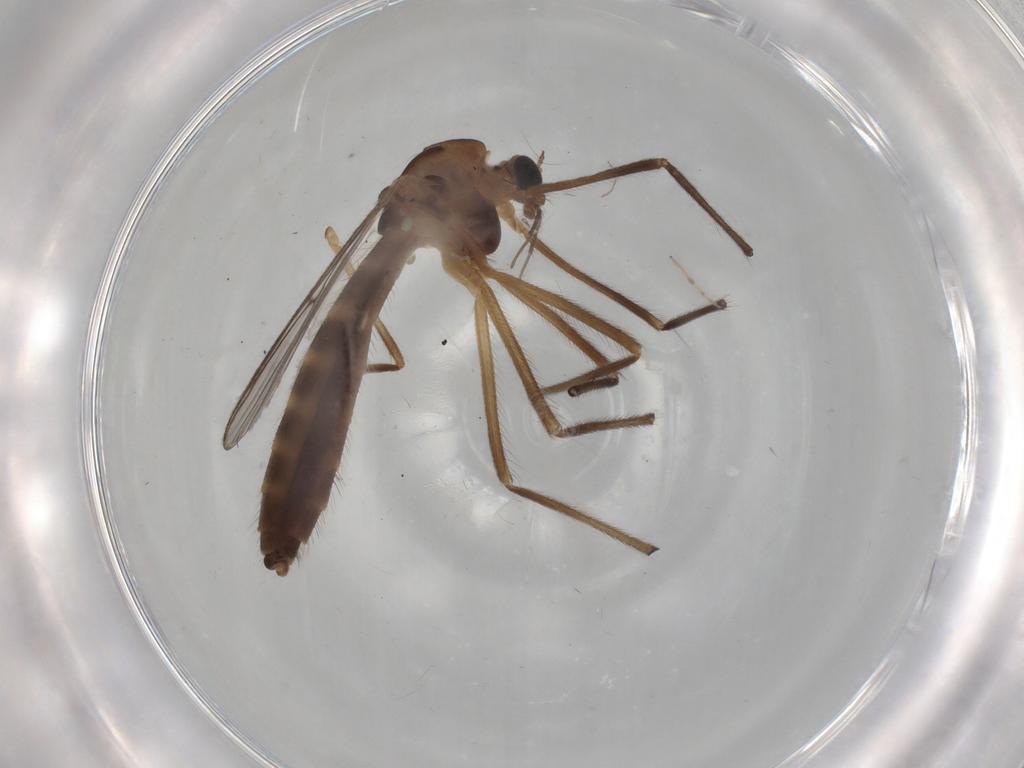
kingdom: Animalia
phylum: Arthropoda
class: Insecta
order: Diptera
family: Chironomidae
